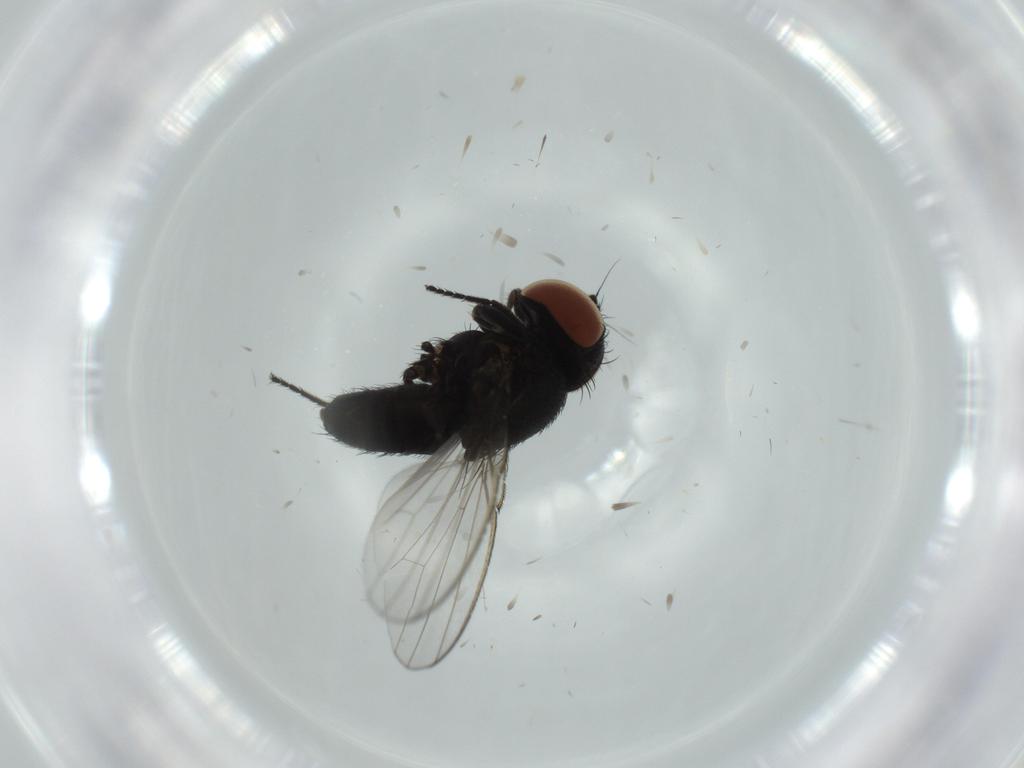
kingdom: Animalia
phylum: Arthropoda
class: Insecta
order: Diptera
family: Milichiidae
